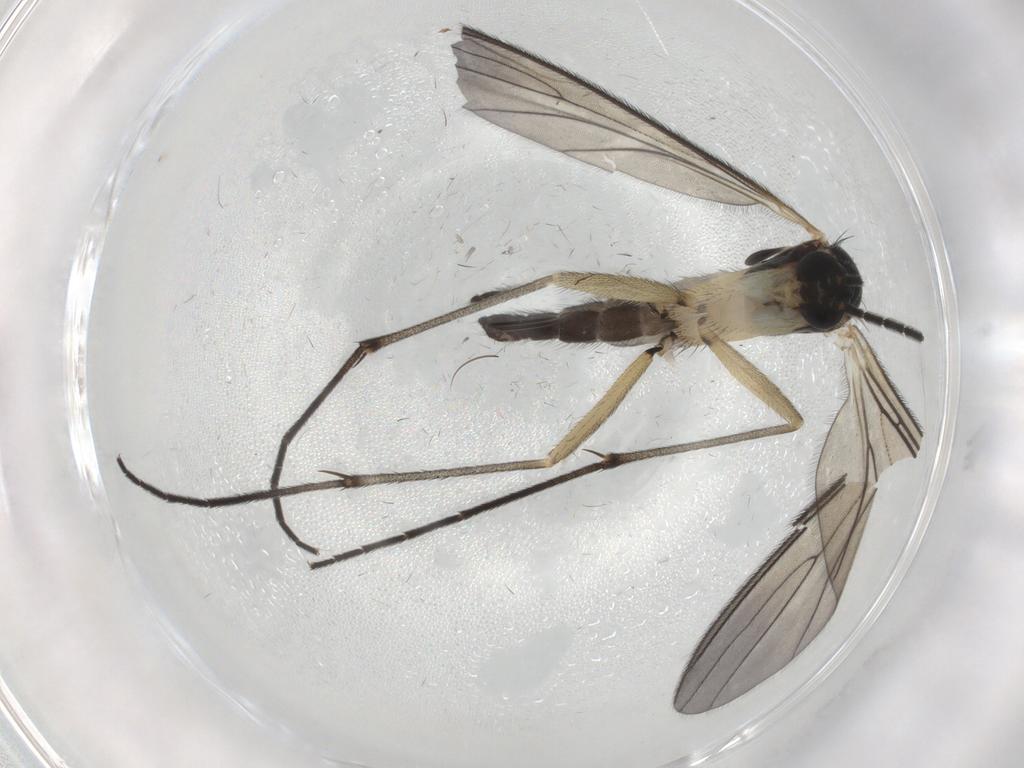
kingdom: Animalia
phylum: Arthropoda
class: Insecta
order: Diptera
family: Sciaridae
